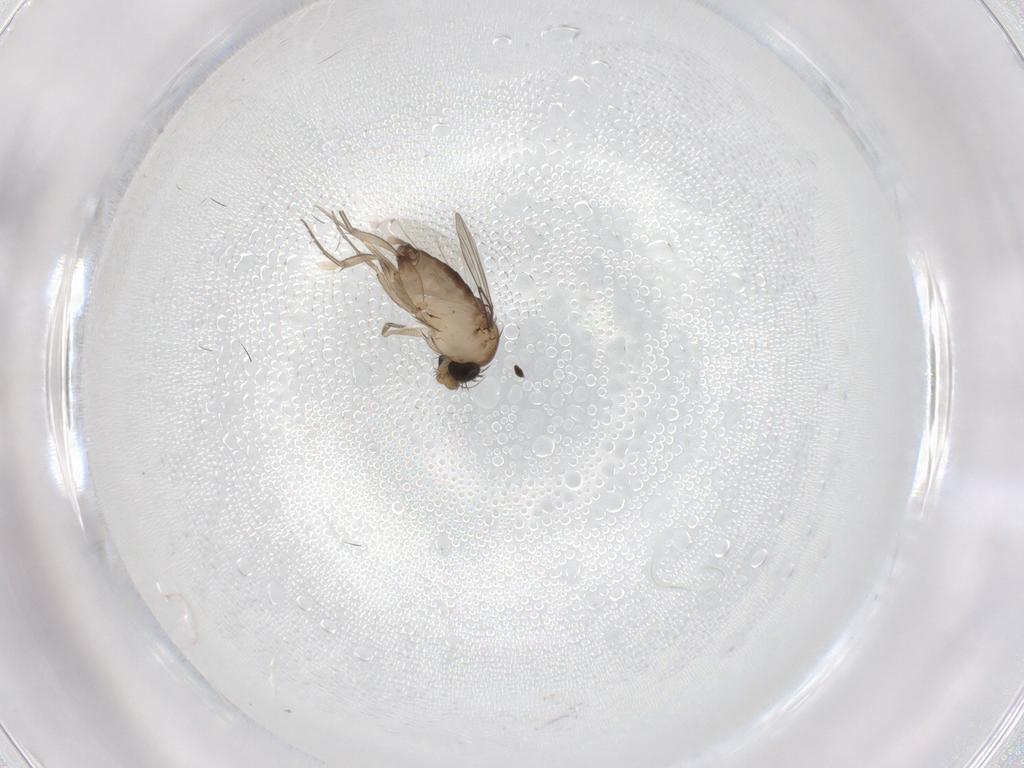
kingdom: Animalia
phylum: Arthropoda
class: Insecta
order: Diptera
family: Phoridae
